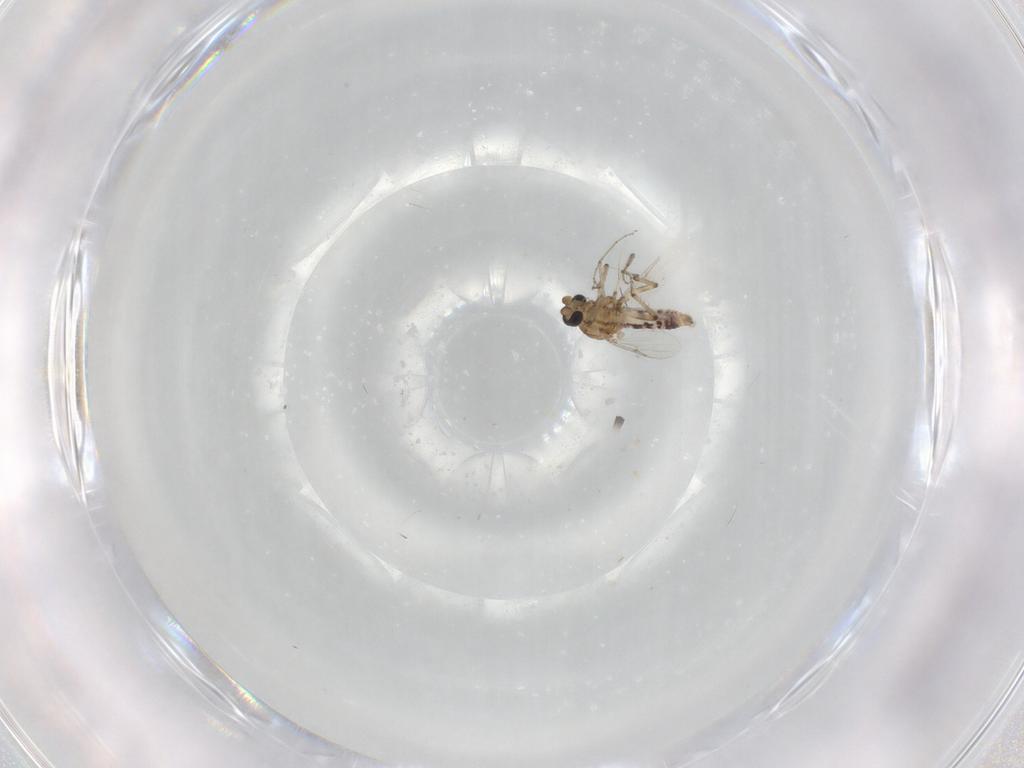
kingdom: Animalia
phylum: Arthropoda
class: Insecta
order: Diptera
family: Ceratopogonidae
